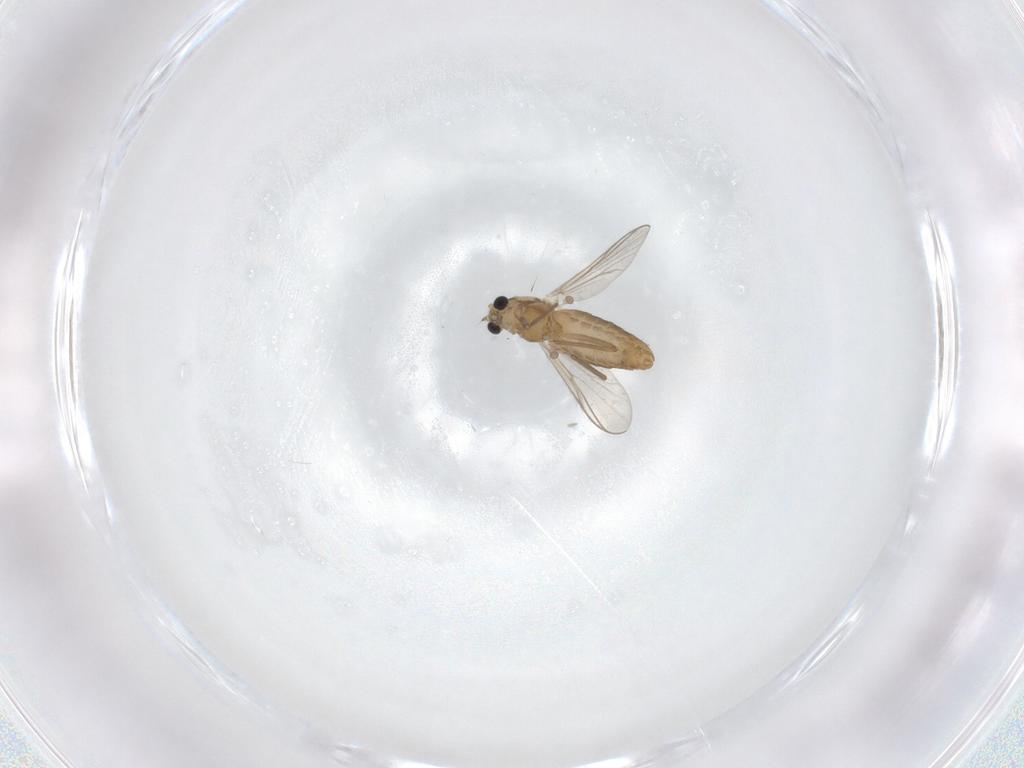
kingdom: Animalia
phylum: Arthropoda
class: Insecta
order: Diptera
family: Chironomidae
